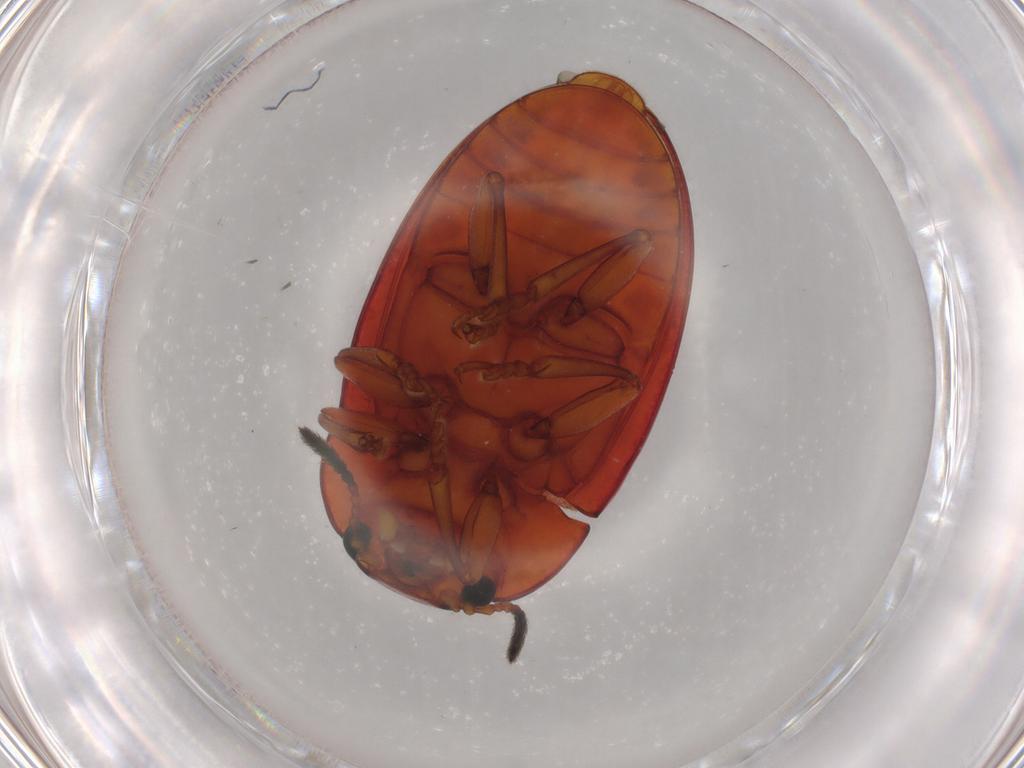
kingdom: Animalia
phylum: Arthropoda
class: Insecta
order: Coleoptera
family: Erotylidae
